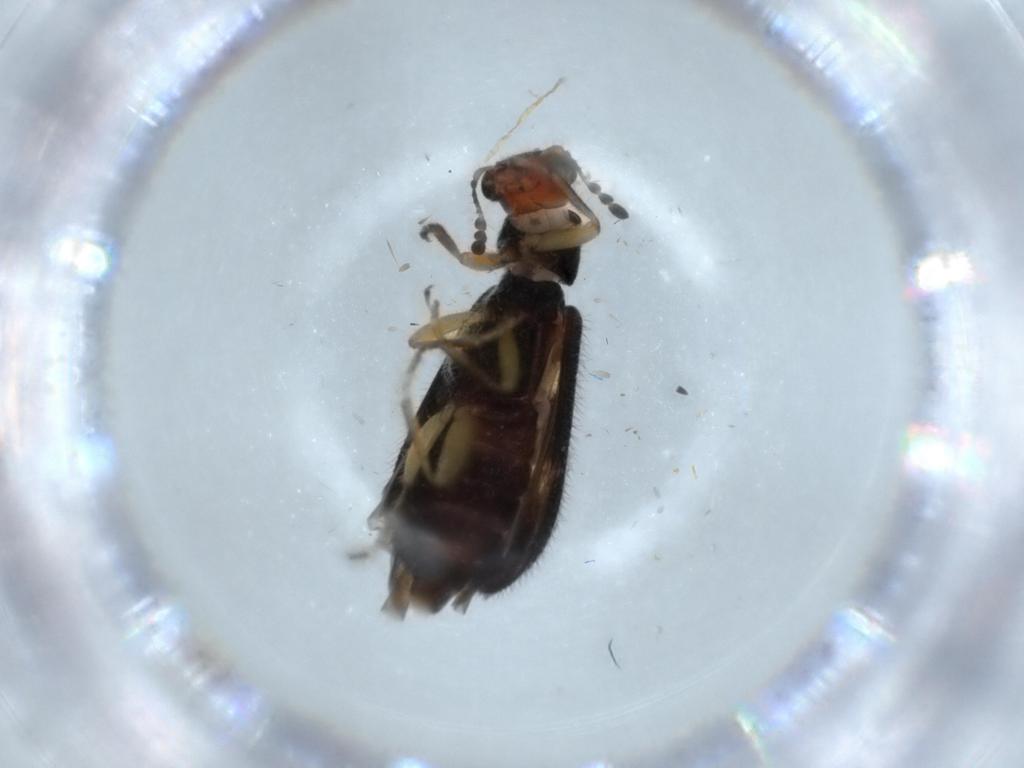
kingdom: Animalia
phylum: Arthropoda
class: Insecta
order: Coleoptera
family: Cleridae
